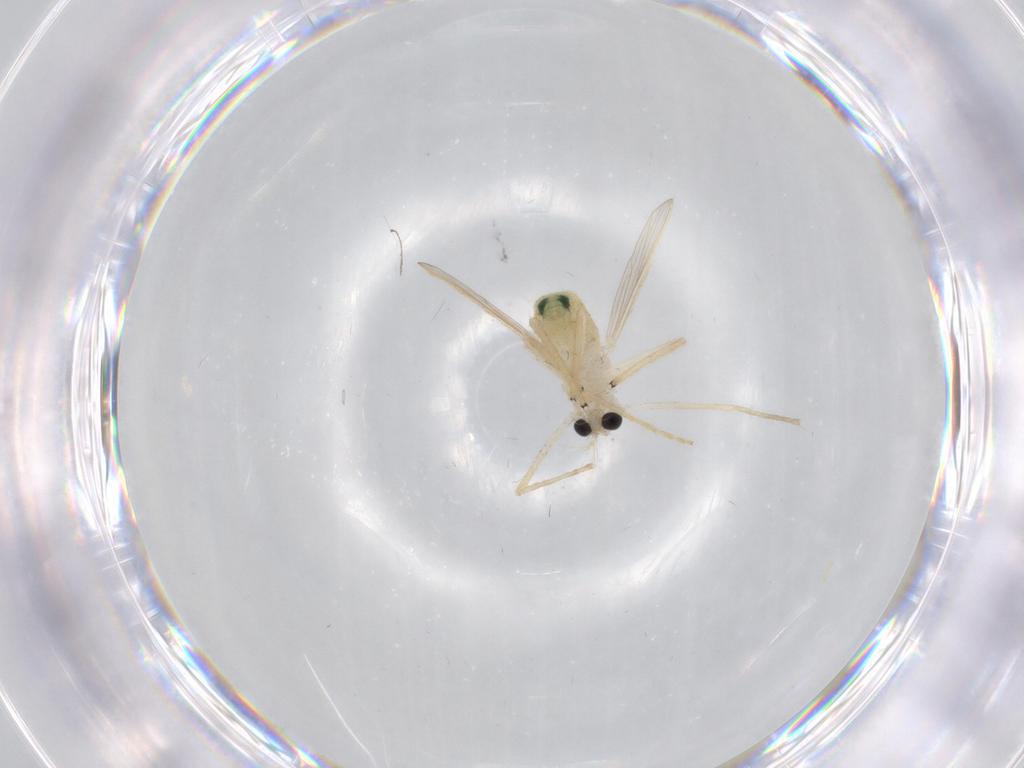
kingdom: Animalia
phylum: Arthropoda
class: Insecta
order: Diptera
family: Chironomidae
